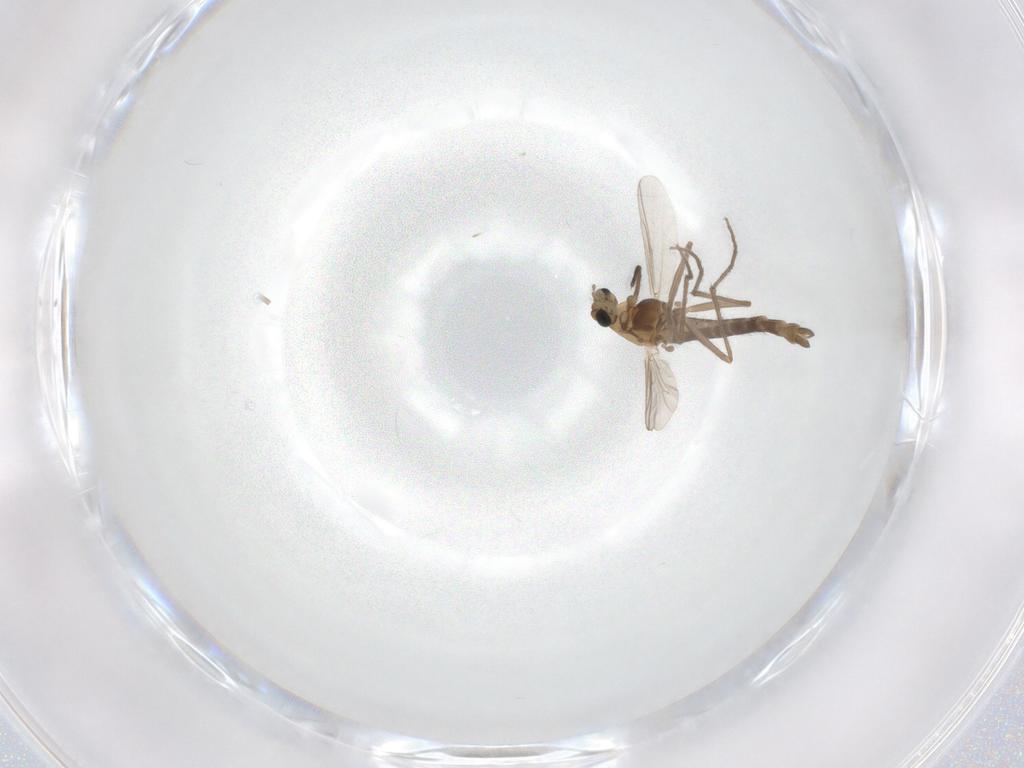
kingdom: Animalia
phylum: Arthropoda
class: Insecta
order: Diptera
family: Chironomidae
